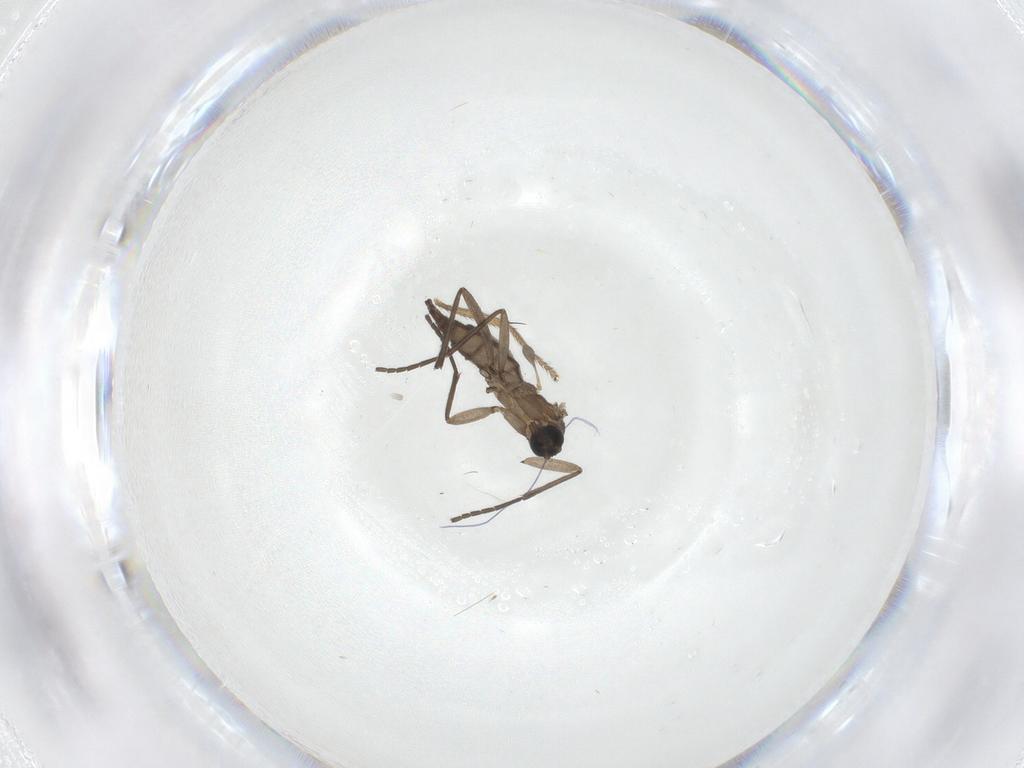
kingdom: Animalia
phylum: Arthropoda
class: Insecta
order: Diptera
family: Tabanidae
